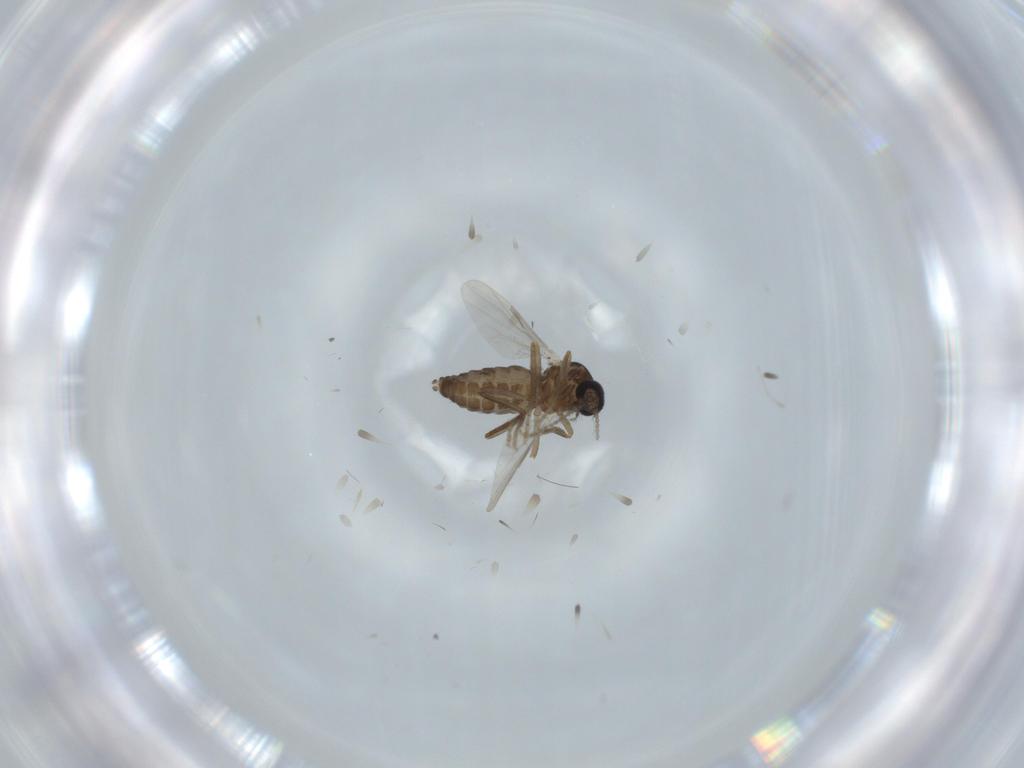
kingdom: Animalia
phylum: Arthropoda
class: Insecta
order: Diptera
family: Ceratopogonidae
